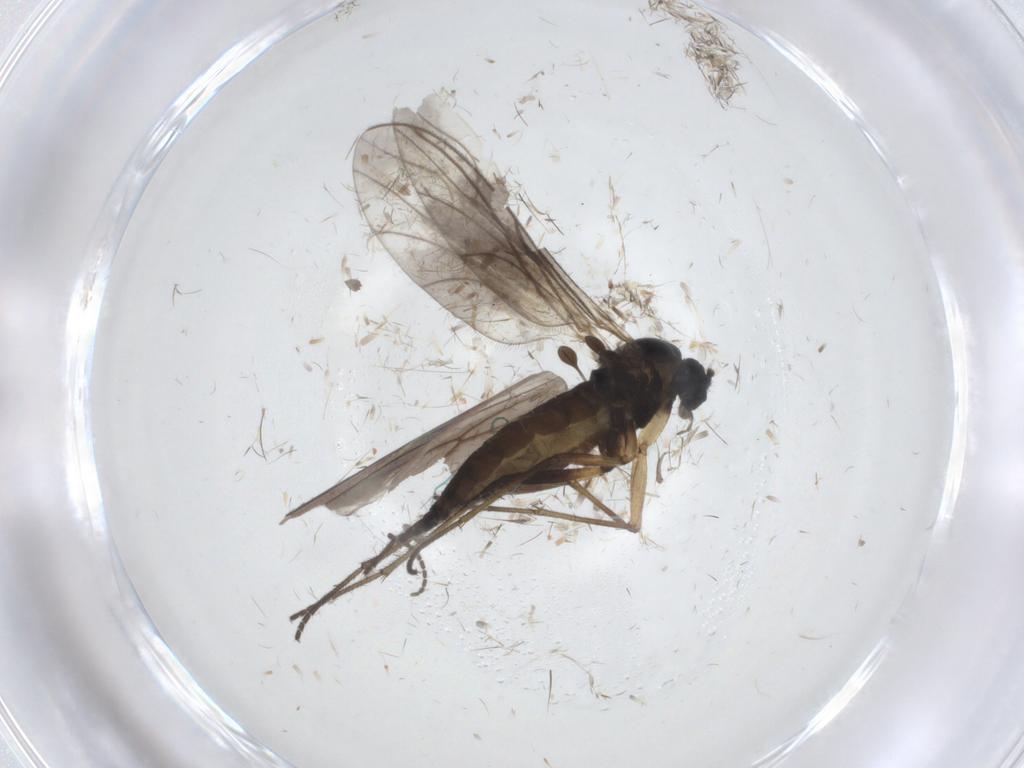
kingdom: Animalia
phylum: Arthropoda
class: Insecta
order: Diptera
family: Sciaridae
